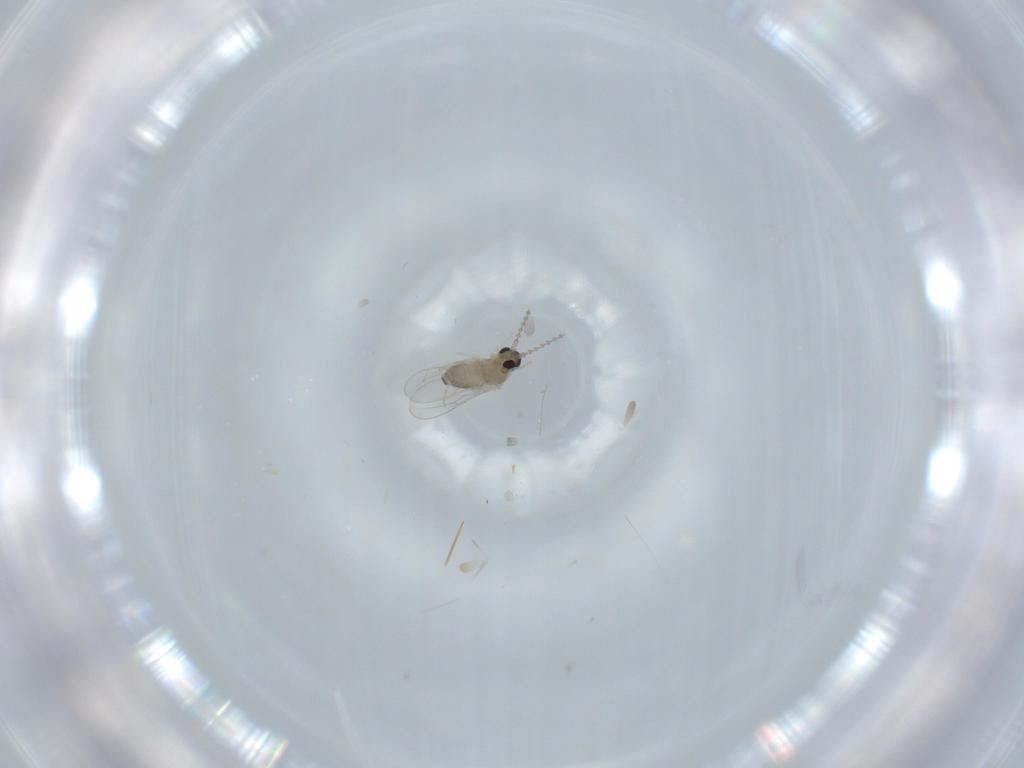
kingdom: Animalia
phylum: Arthropoda
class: Insecta
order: Diptera
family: Cecidomyiidae
